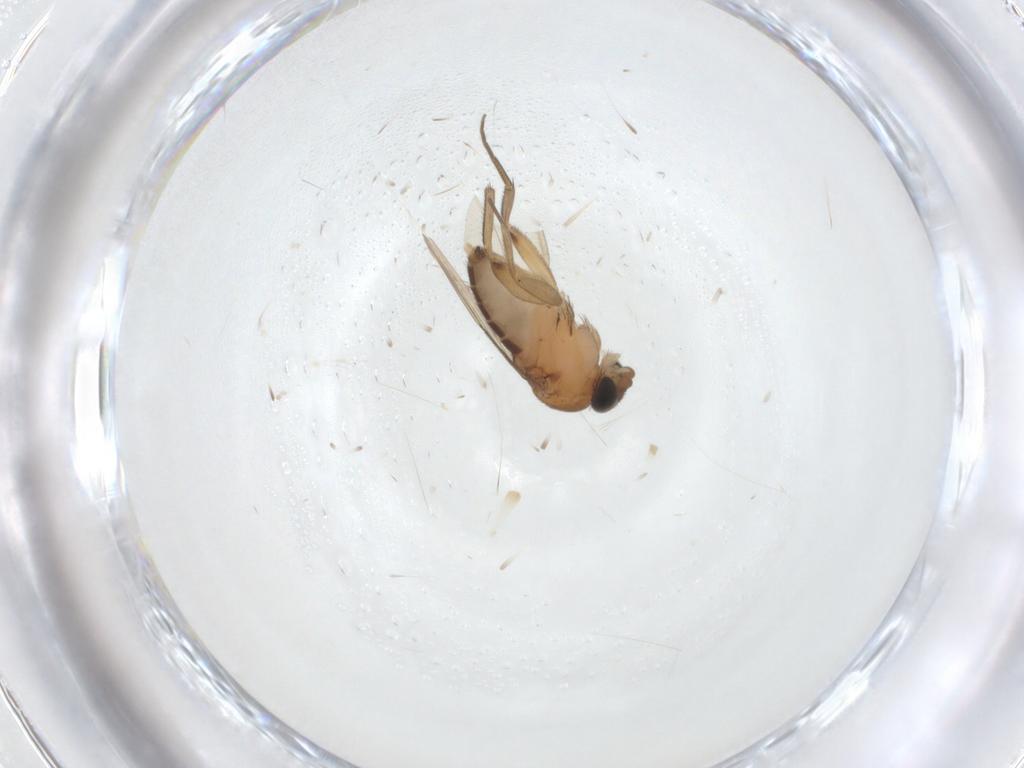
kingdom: Animalia
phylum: Arthropoda
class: Insecta
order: Diptera
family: Phoridae
